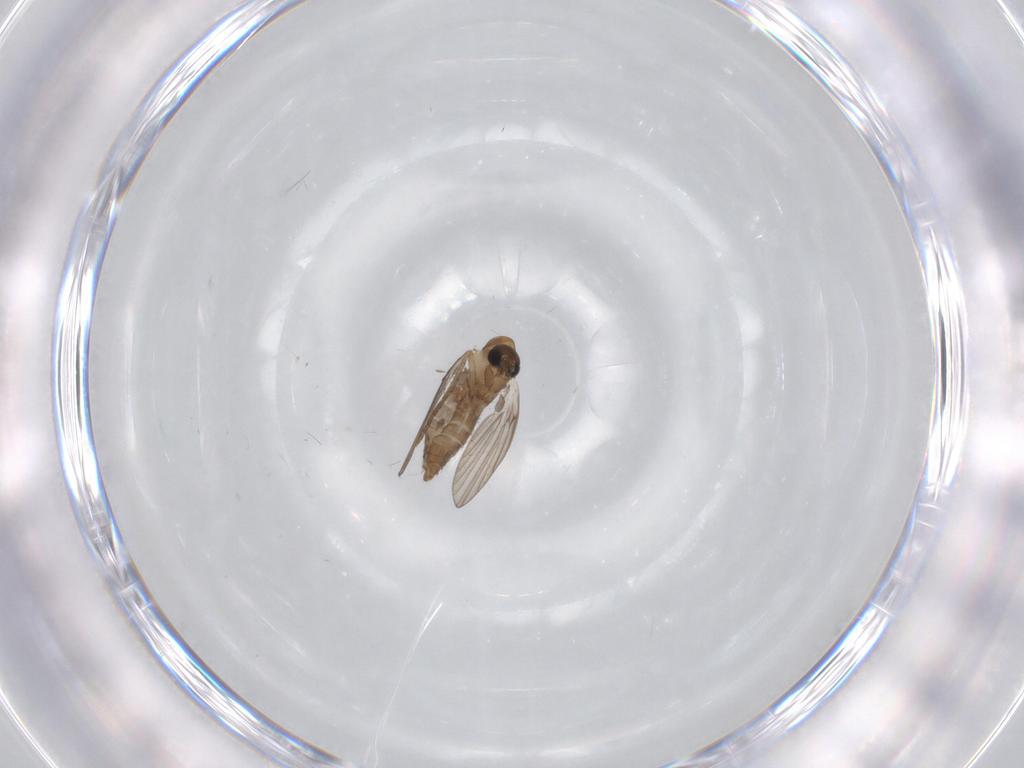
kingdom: Animalia
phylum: Arthropoda
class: Insecta
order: Diptera
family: Psychodidae
